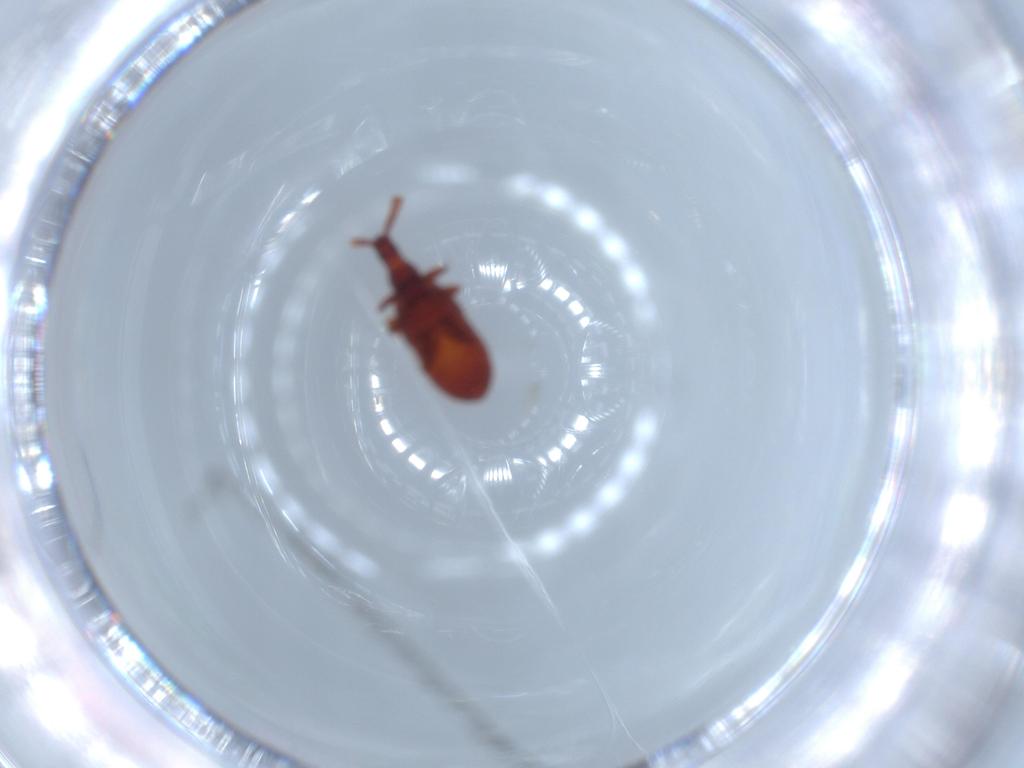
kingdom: Animalia
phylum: Arthropoda
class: Insecta
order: Coleoptera
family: Staphylinidae
